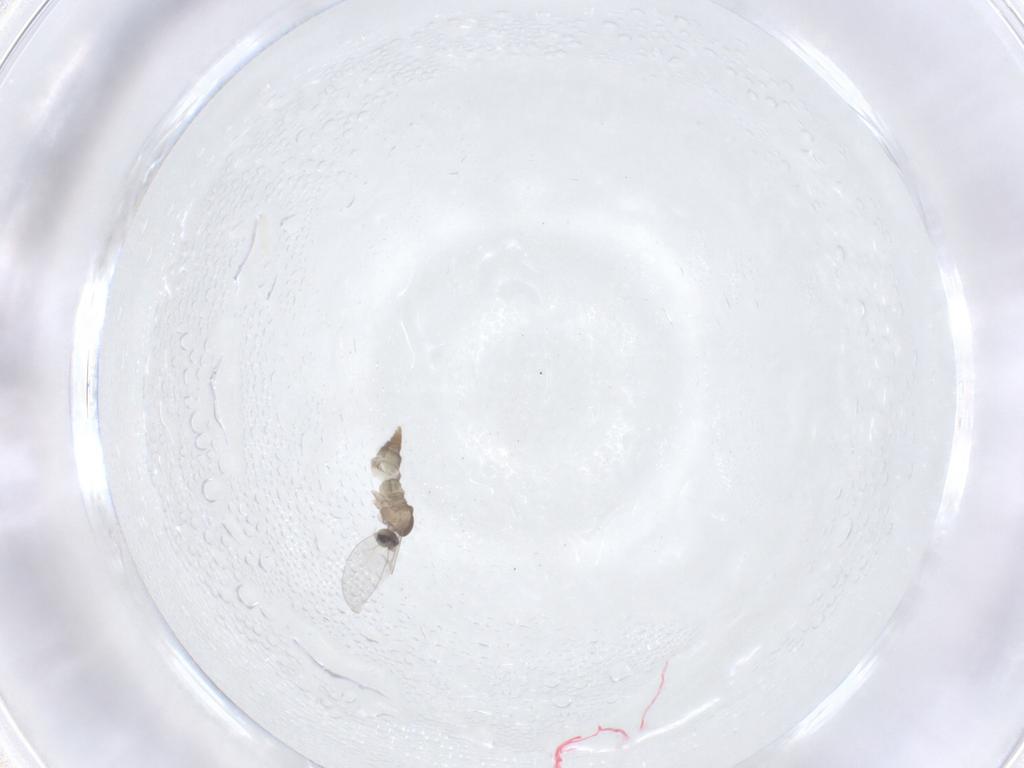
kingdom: Animalia
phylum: Arthropoda
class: Insecta
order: Diptera
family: Cecidomyiidae
